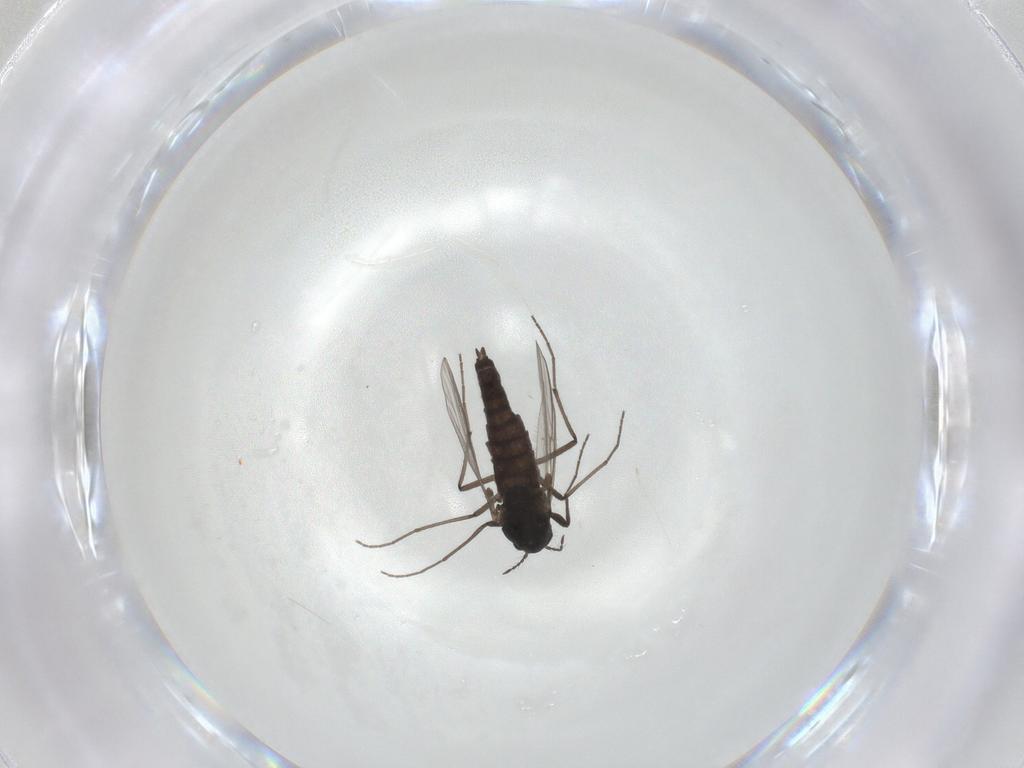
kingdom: Animalia
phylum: Arthropoda
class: Insecta
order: Diptera
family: Chironomidae
